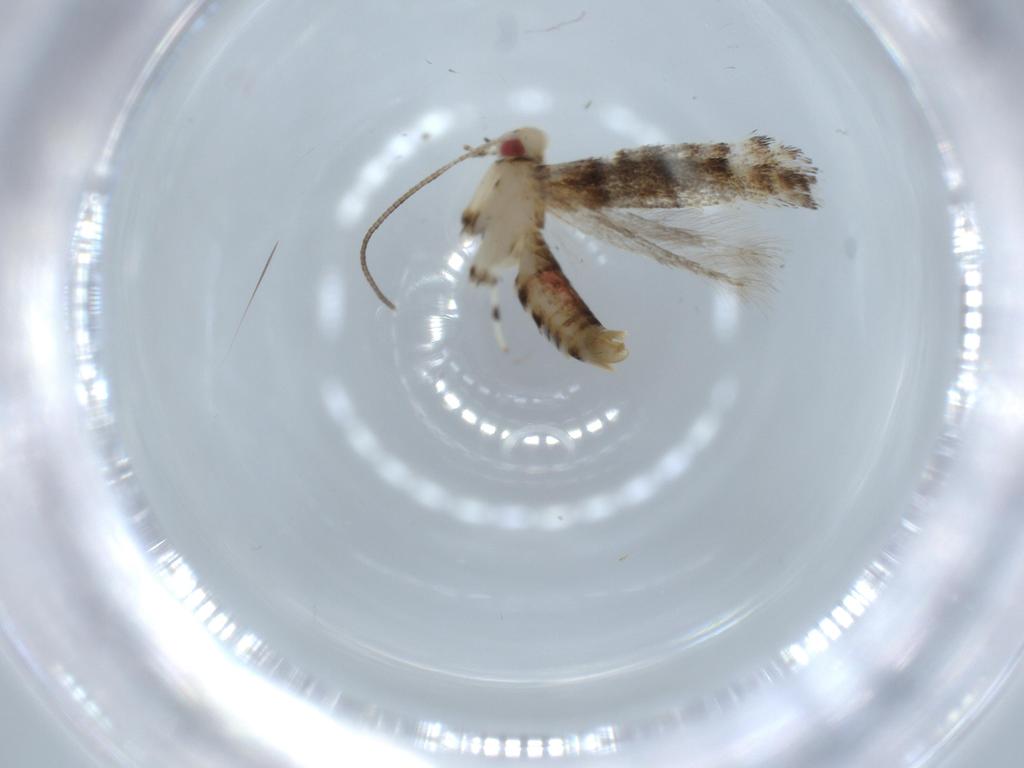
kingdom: Animalia
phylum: Arthropoda
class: Insecta
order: Lepidoptera
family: Gracillariidae
